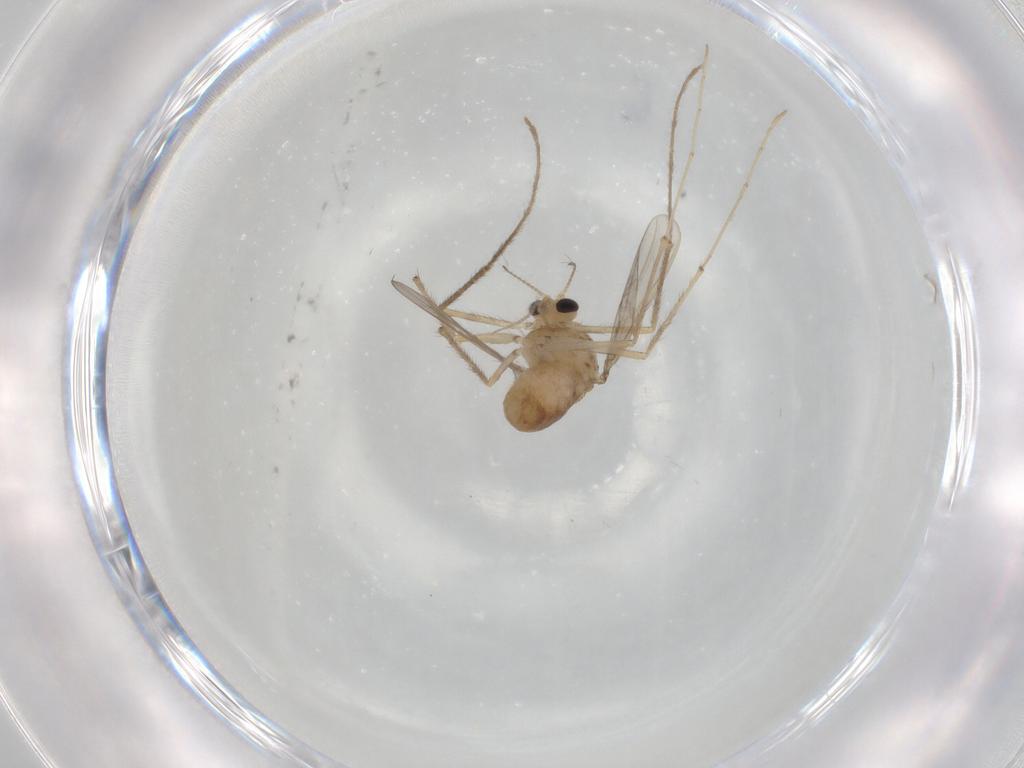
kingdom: Animalia
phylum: Arthropoda
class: Insecta
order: Diptera
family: Chironomidae
